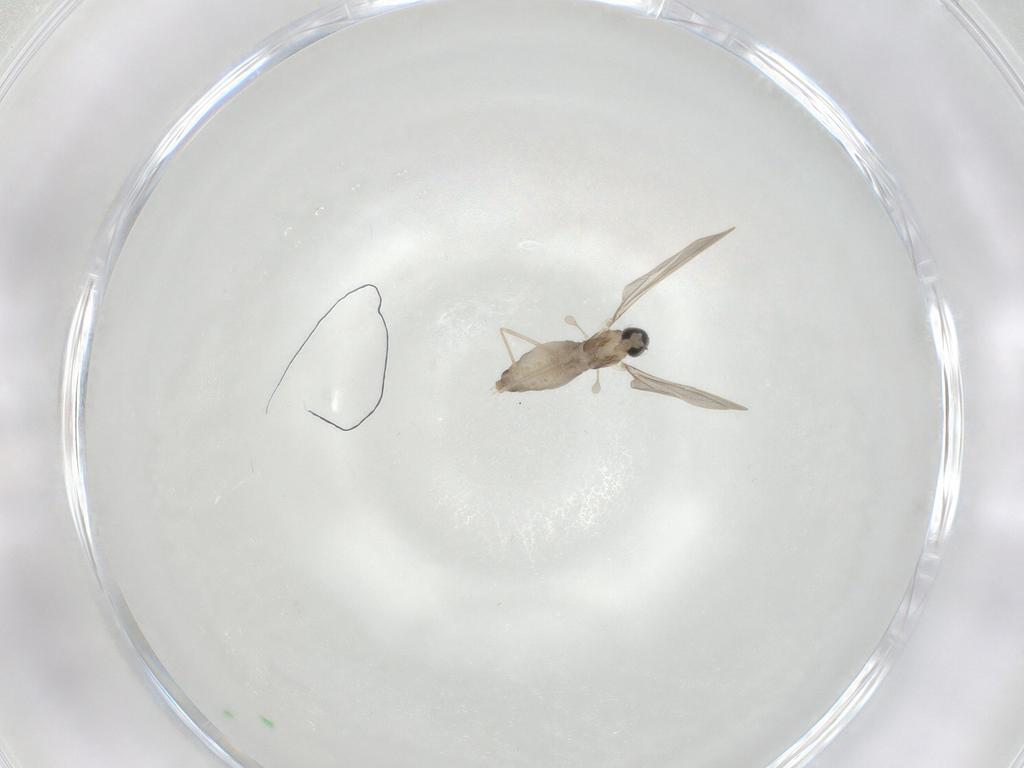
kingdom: Animalia
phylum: Arthropoda
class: Insecta
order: Diptera
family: Cecidomyiidae
